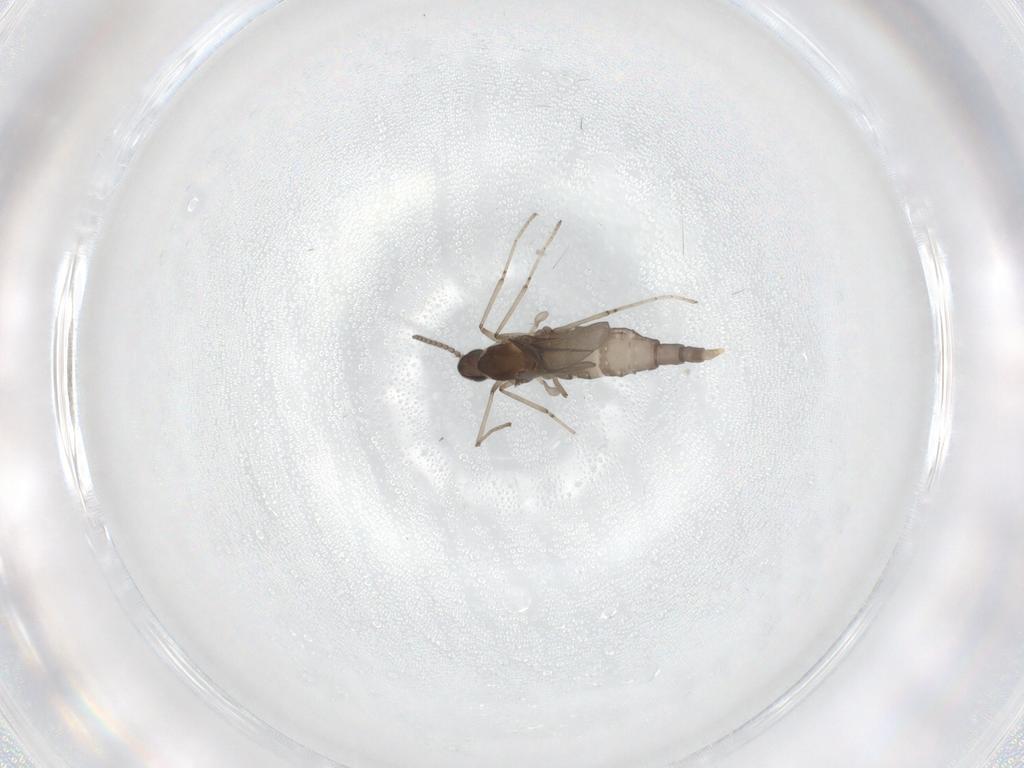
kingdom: Animalia
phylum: Arthropoda
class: Insecta
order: Diptera
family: Cecidomyiidae
